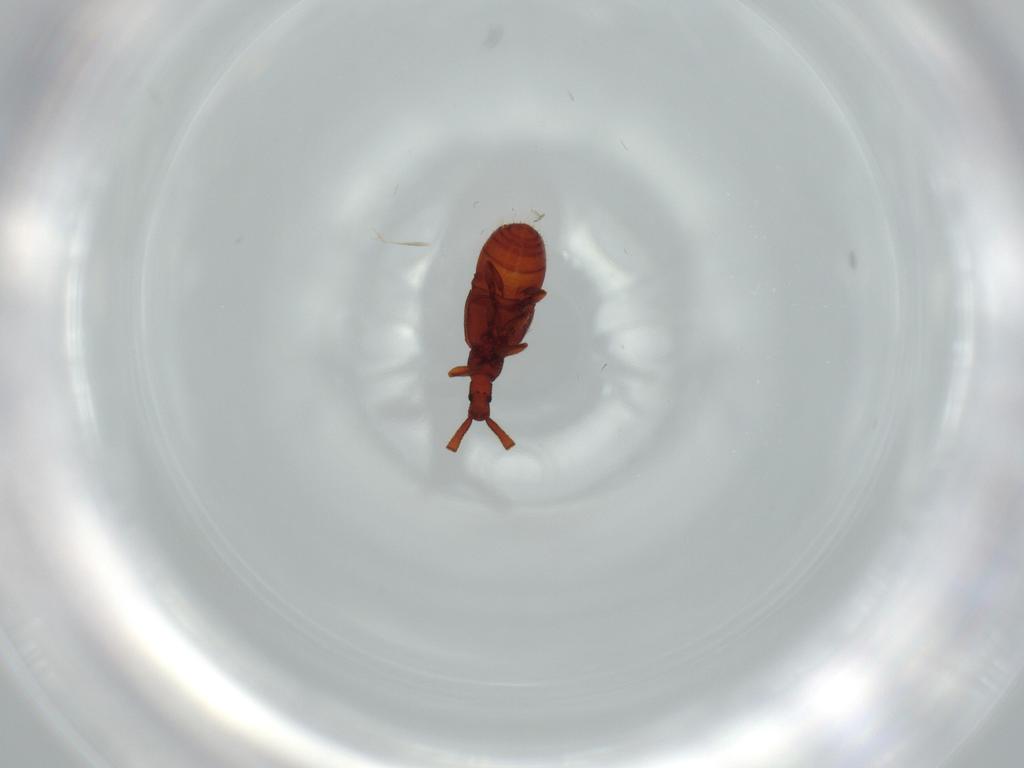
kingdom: Animalia
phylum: Arthropoda
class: Insecta
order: Coleoptera
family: Staphylinidae
